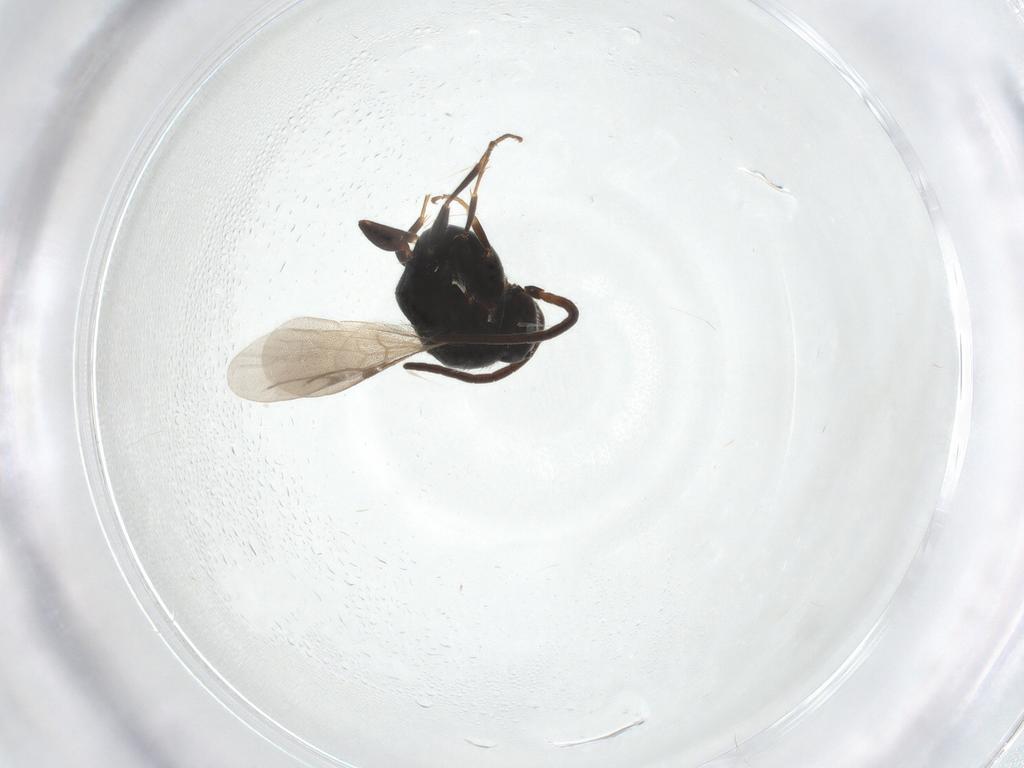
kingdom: Animalia
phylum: Arthropoda
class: Insecta
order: Hymenoptera
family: Bethylidae
